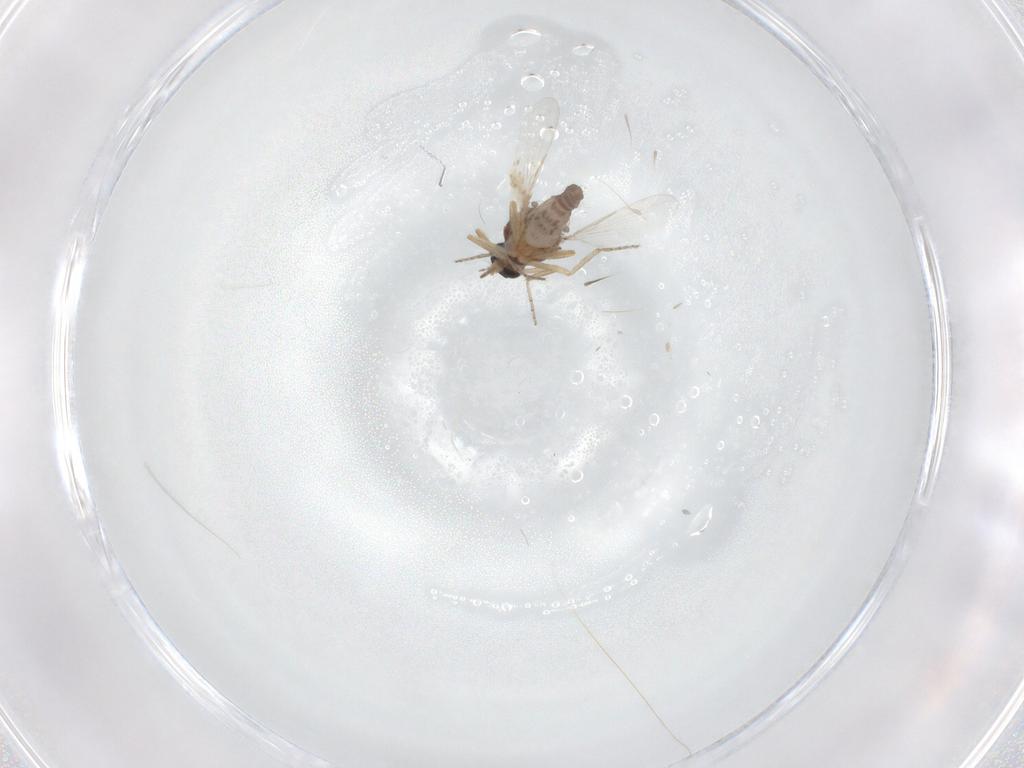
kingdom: Animalia
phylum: Arthropoda
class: Insecta
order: Diptera
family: Ceratopogonidae
